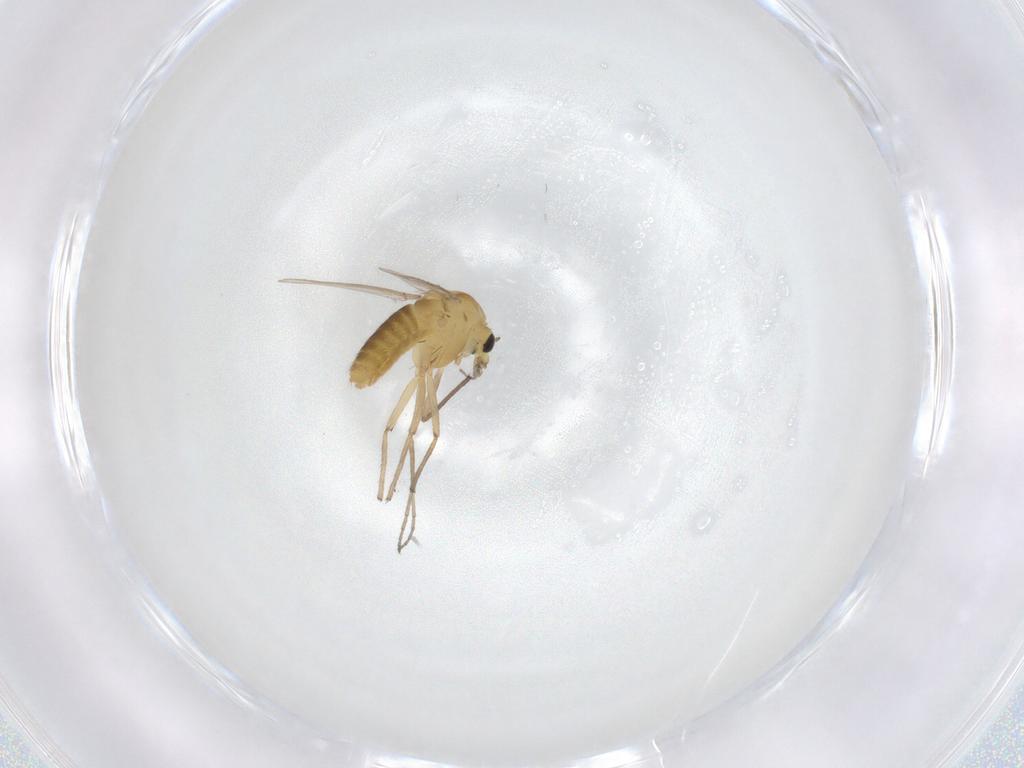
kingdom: Animalia
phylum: Arthropoda
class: Insecta
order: Diptera
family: Chironomidae
